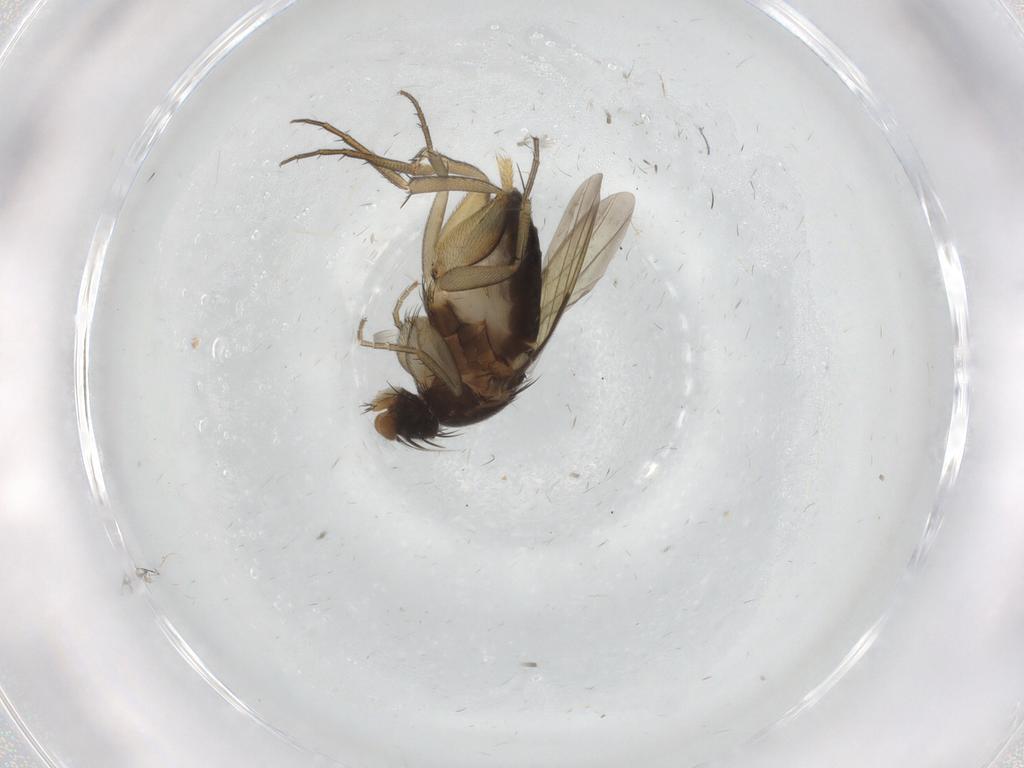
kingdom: Animalia
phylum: Arthropoda
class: Insecta
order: Diptera
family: Phoridae
